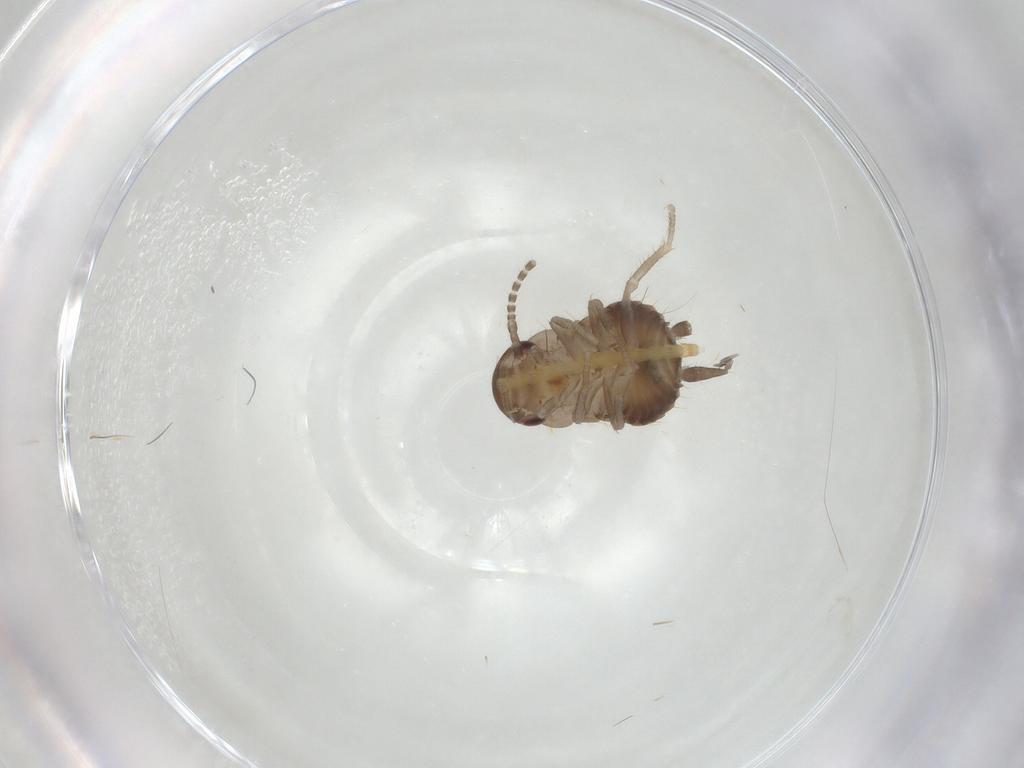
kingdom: Animalia
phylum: Arthropoda
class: Insecta
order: Blattodea
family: Ectobiidae
